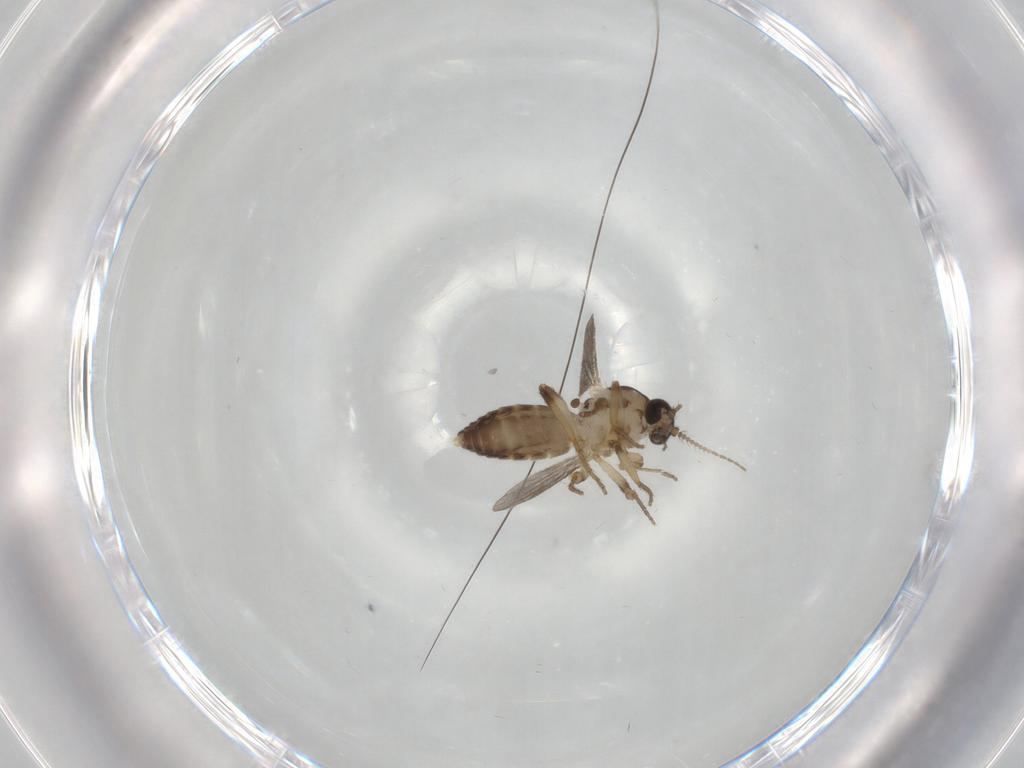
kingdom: Animalia
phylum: Arthropoda
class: Insecta
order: Diptera
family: Ceratopogonidae
